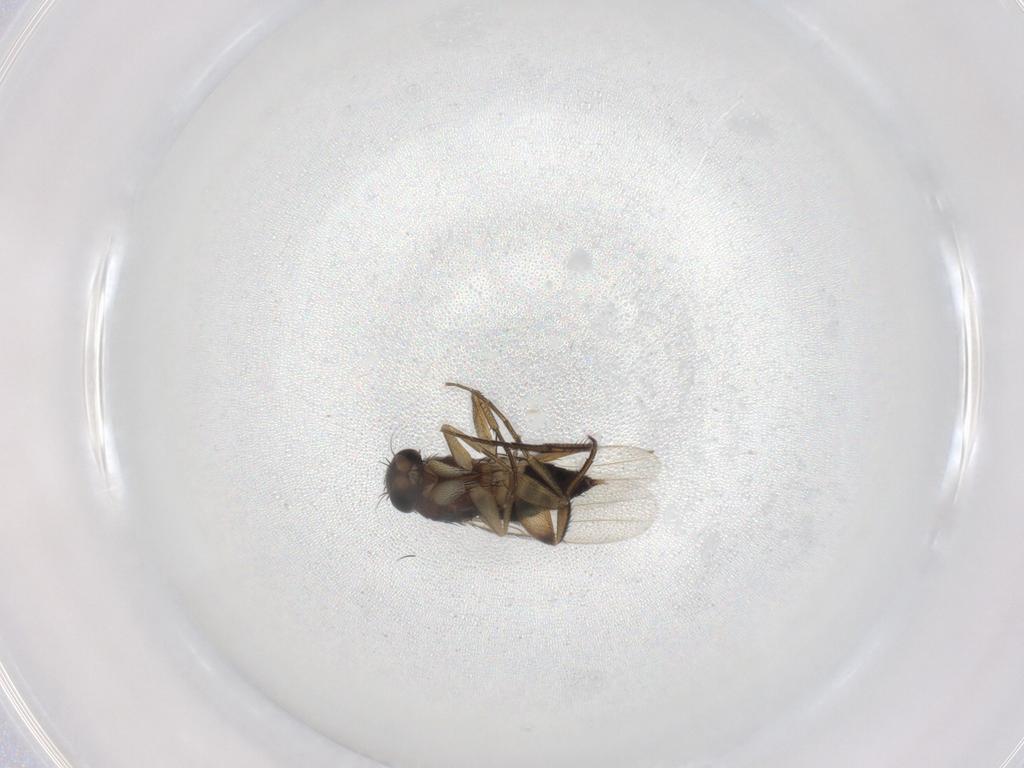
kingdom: Animalia
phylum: Arthropoda
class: Insecta
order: Diptera
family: Phoridae
